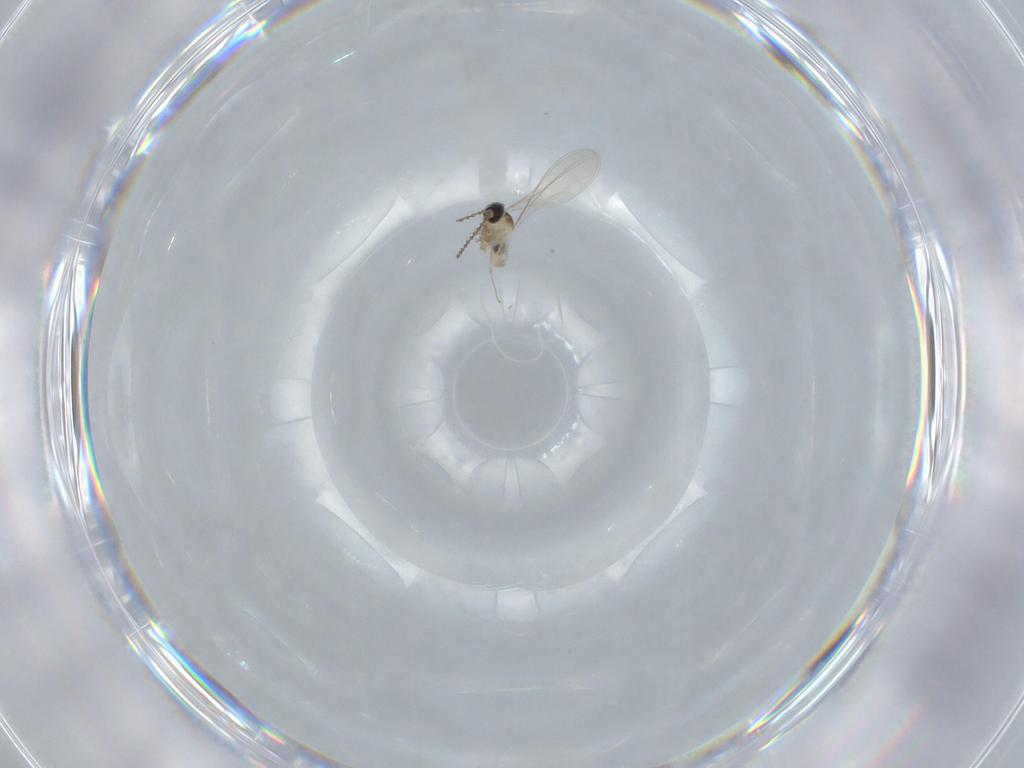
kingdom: Animalia
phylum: Arthropoda
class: Insecta
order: Diptera
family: Cecidomyiidae
